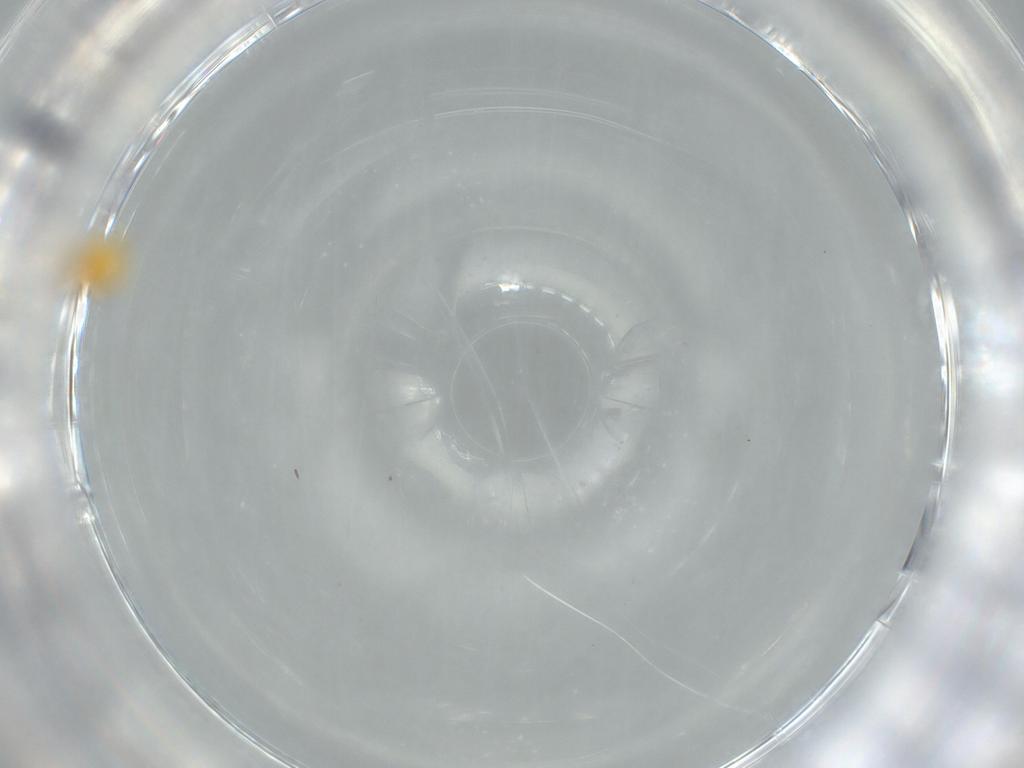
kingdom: Animalia
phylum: Arthropoda
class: Insecta
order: Hemiptera
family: Aleyrodidae
